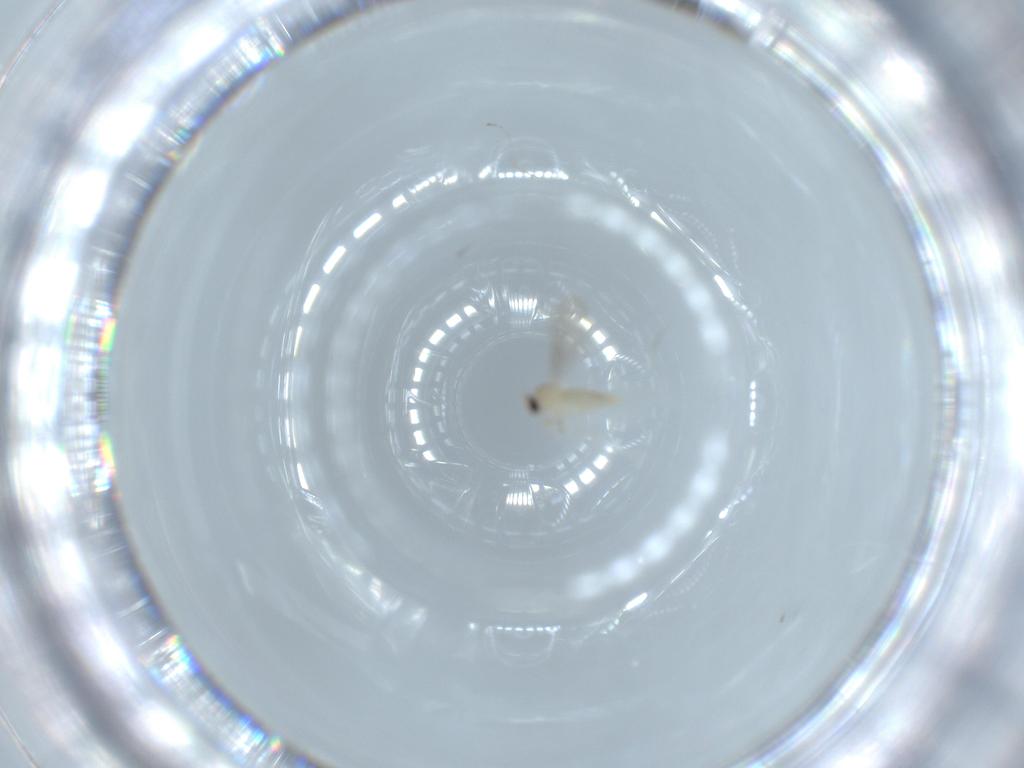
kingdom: Animalia
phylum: Arthropoda
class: Insecta
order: Diptera
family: Cecidomyiidae
